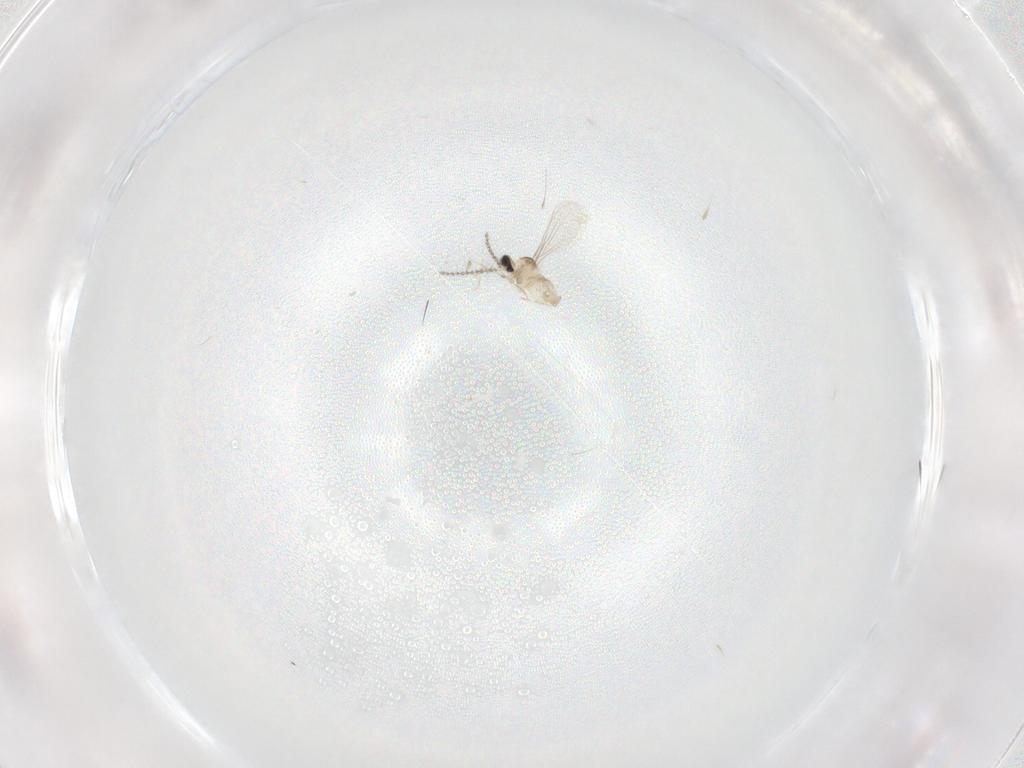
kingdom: Animalia
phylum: Arthropoda
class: Insecta
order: Diptera
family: Cecidomyiidae
